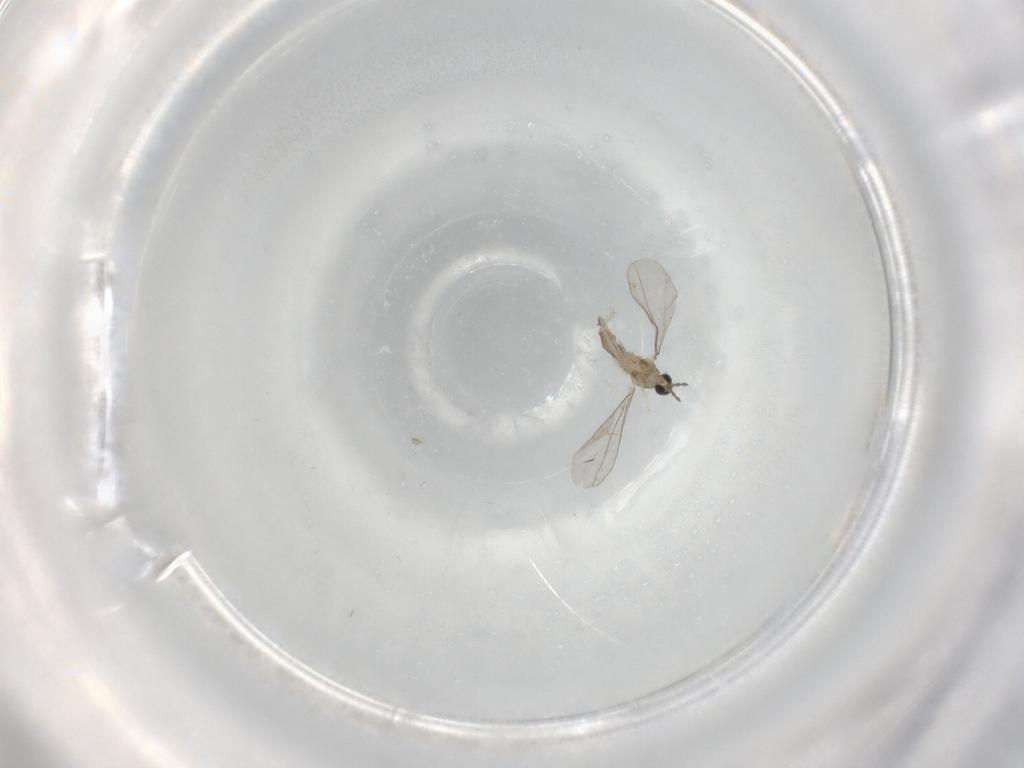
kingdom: Animalia
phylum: Arthropoda
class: Insecta
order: Diptera
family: Cecidomyiidae
